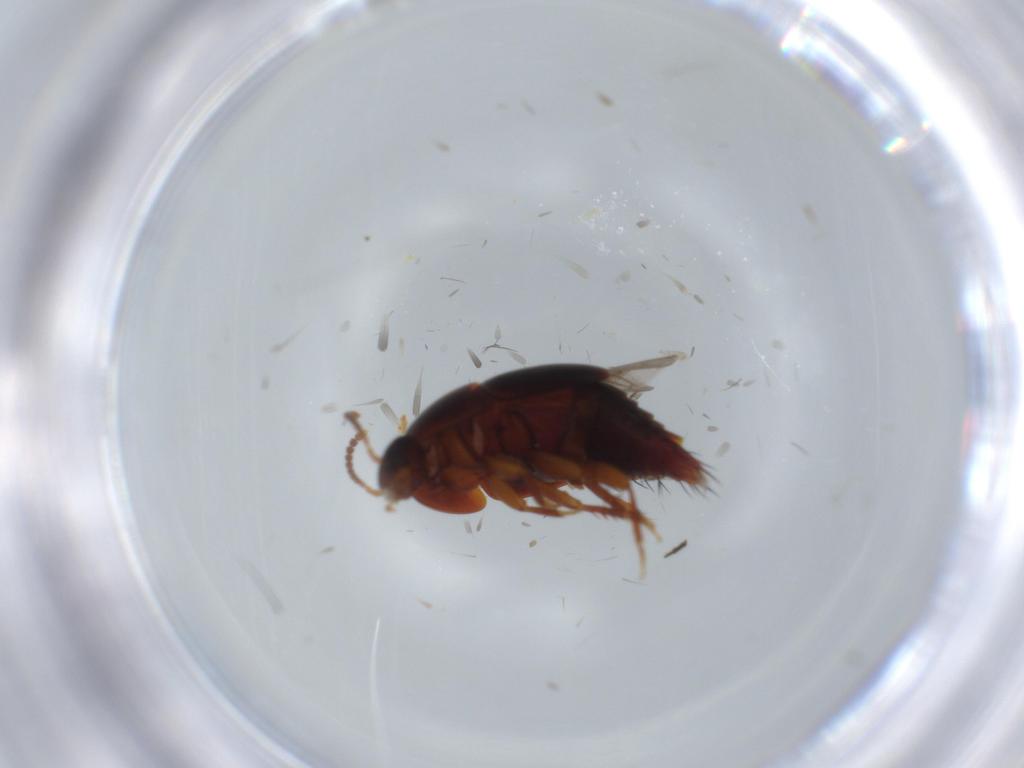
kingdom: Animalia
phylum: Arthropoda
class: Insecta
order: Coleoptera
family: Staphylinidae
